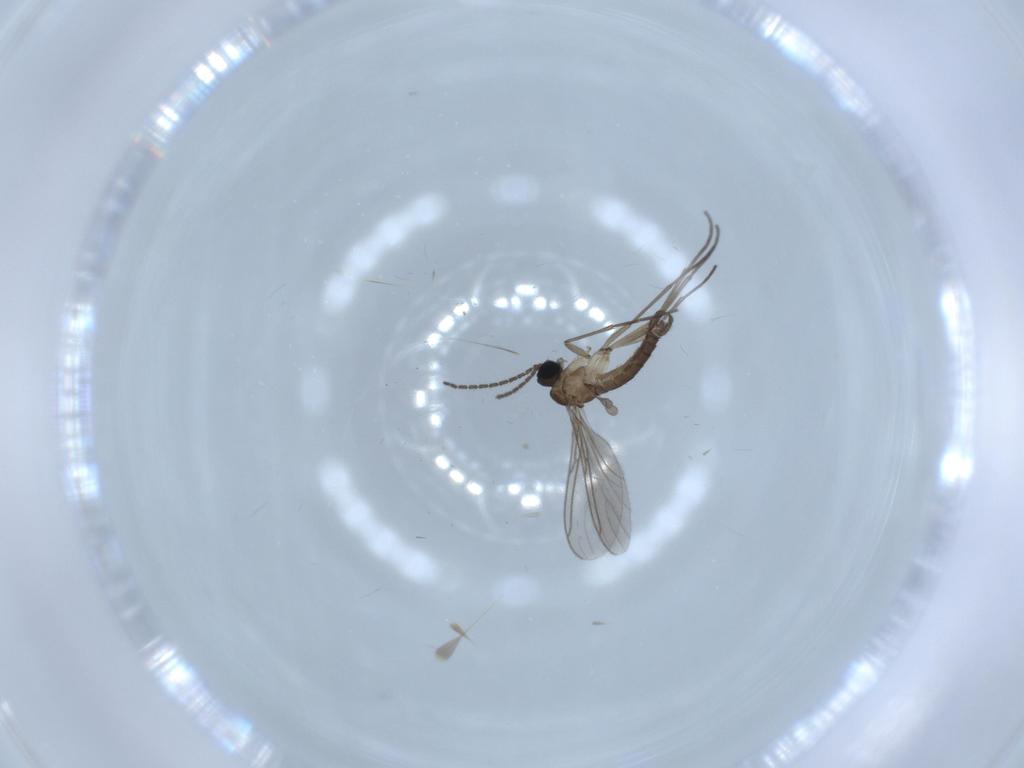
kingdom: Animalia
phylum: Arthropoda
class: Insecta
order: Diptera
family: Sciaridae
